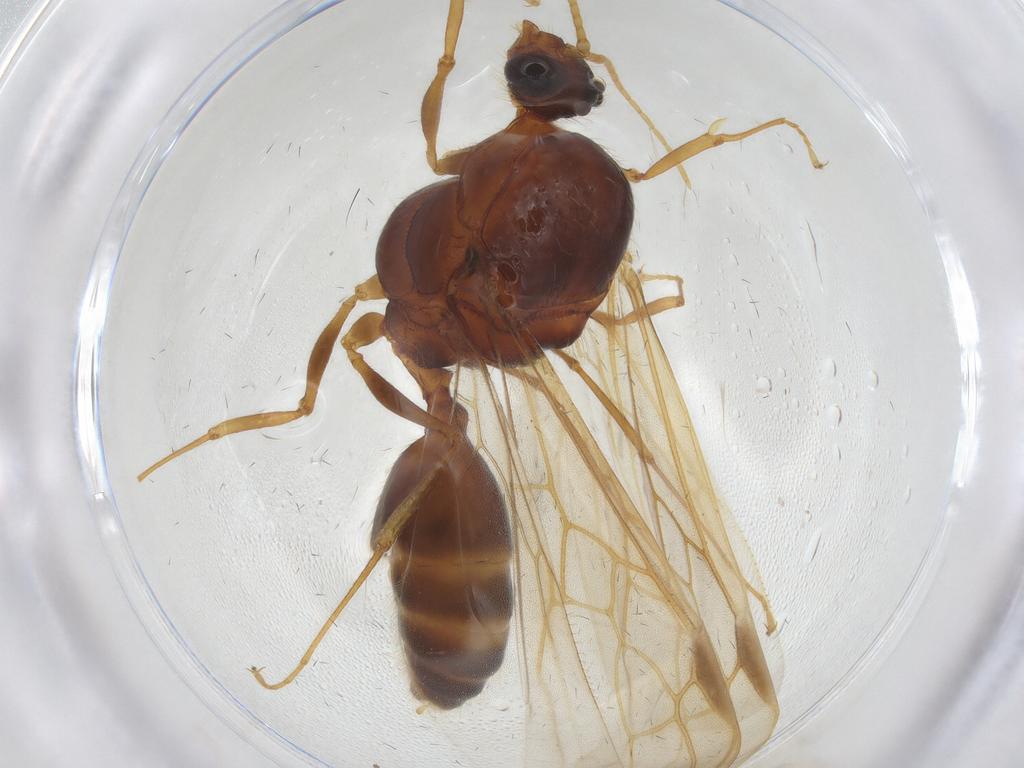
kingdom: Animalia
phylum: Arthropoda
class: Insecta
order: Hymenoptera
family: Formicidae
